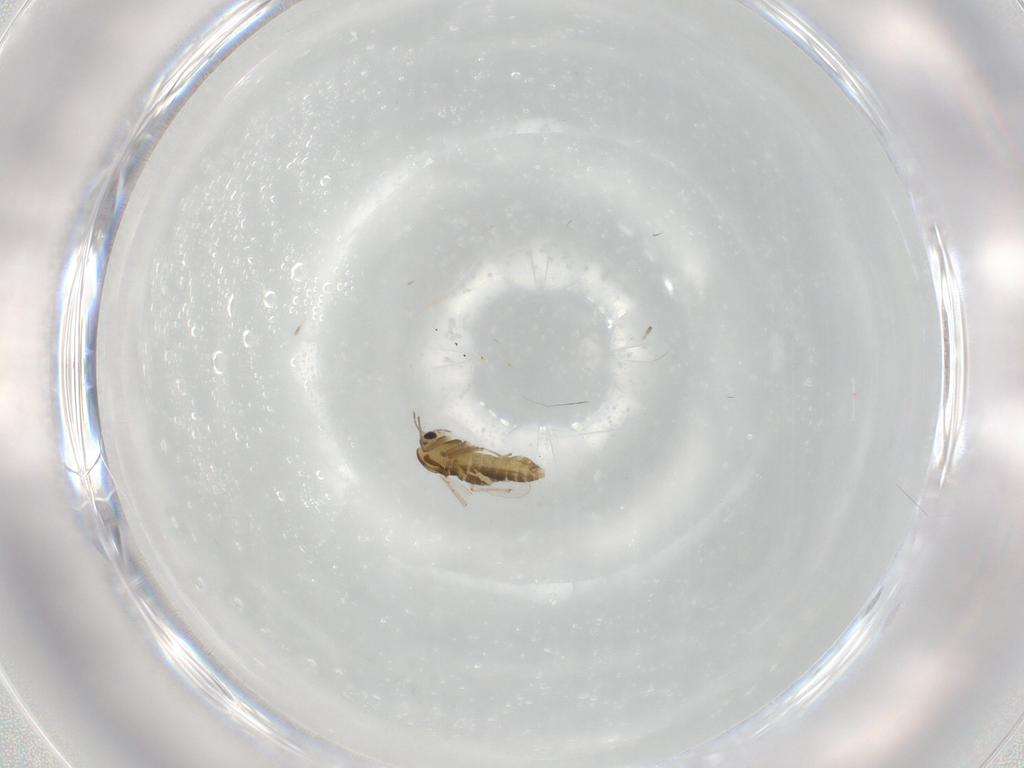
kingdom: Animalia
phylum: Arthropoda
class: Insecta
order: Diptera
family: Chironomidae
